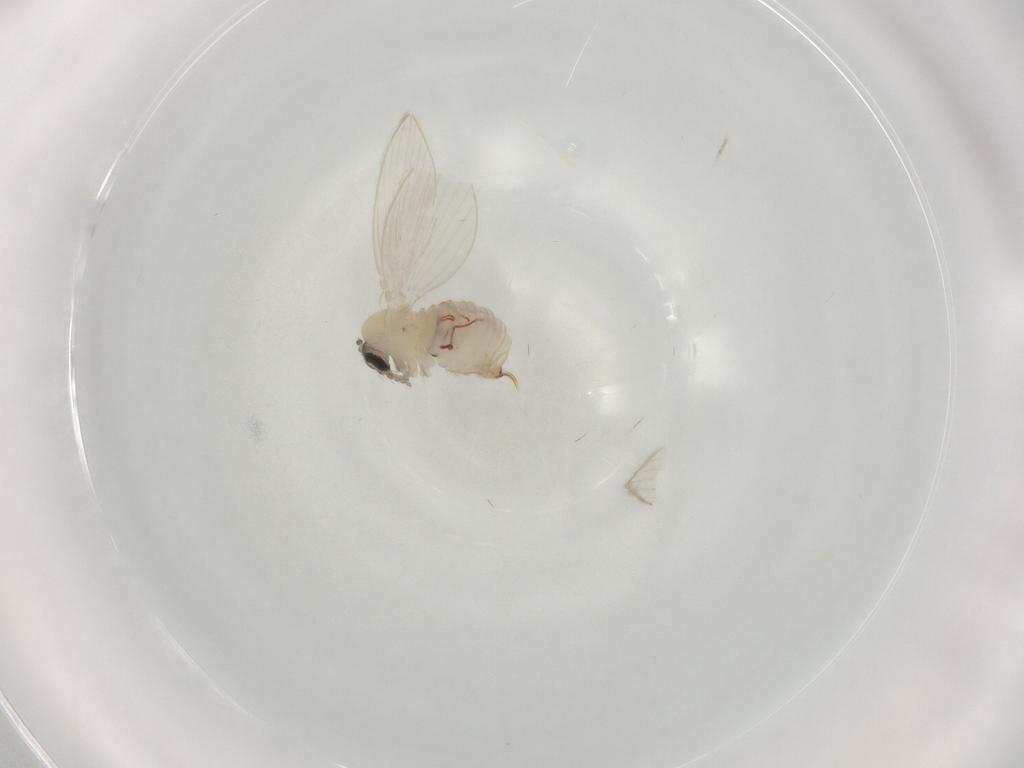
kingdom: Animalia
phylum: Arthropoda
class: Insecta
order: Diptera
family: Psychodidae
